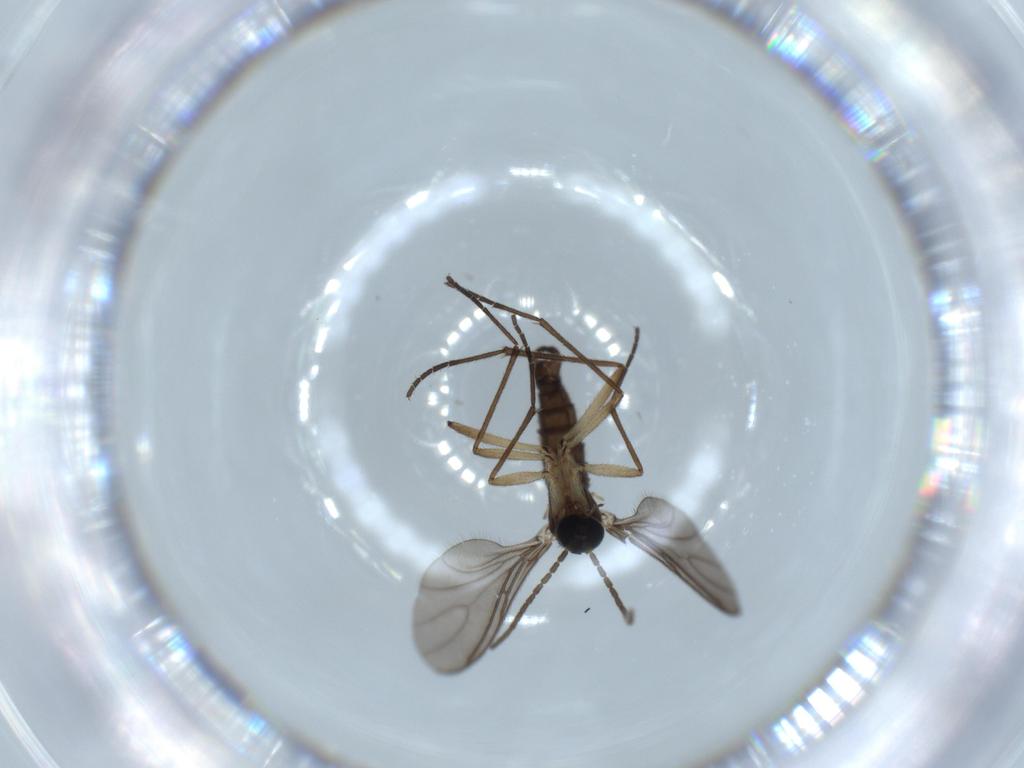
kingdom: Animalia
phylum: Arthropoda
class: Insecta
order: Diptera
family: Sciaridae
